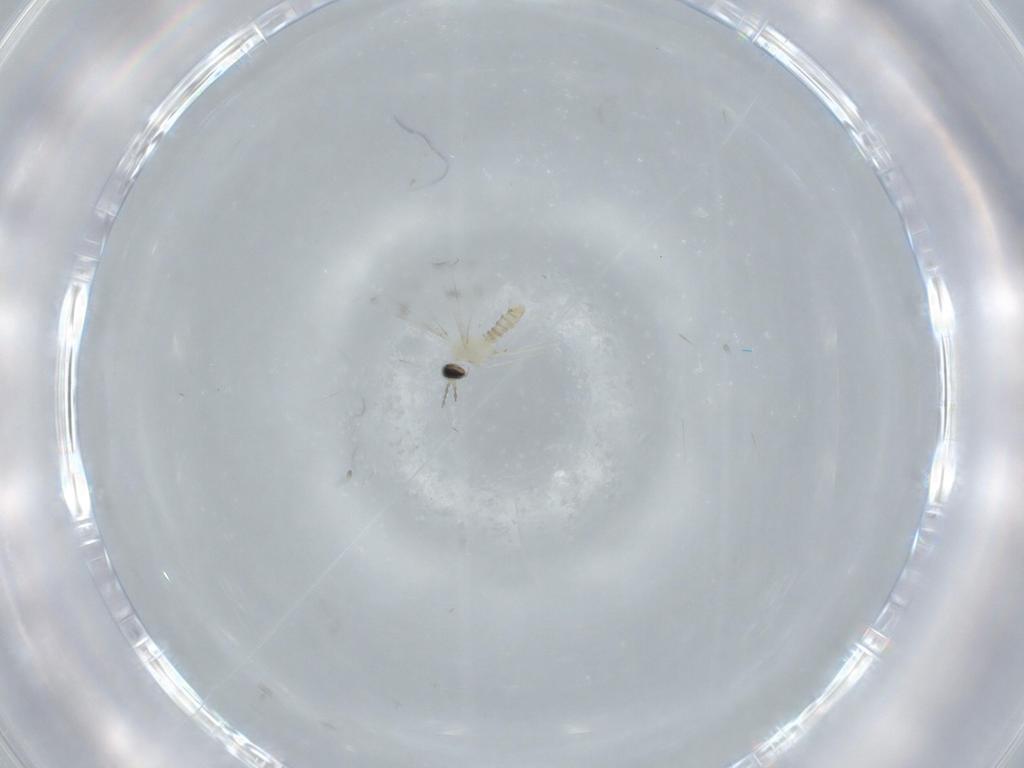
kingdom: Animalia
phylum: Arthropoda
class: Insecta
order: Diptera
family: Cecidomyiidae
